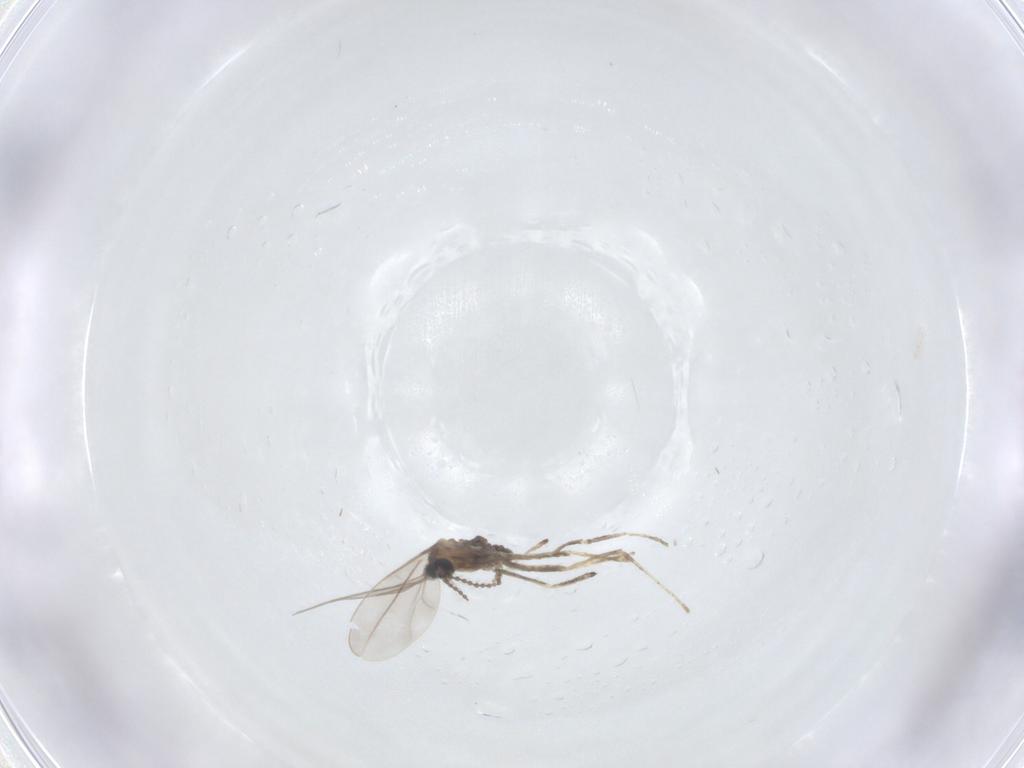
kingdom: Animalia
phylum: Arthropoda
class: Insecta
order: Diptera
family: Cecidomyiidae
